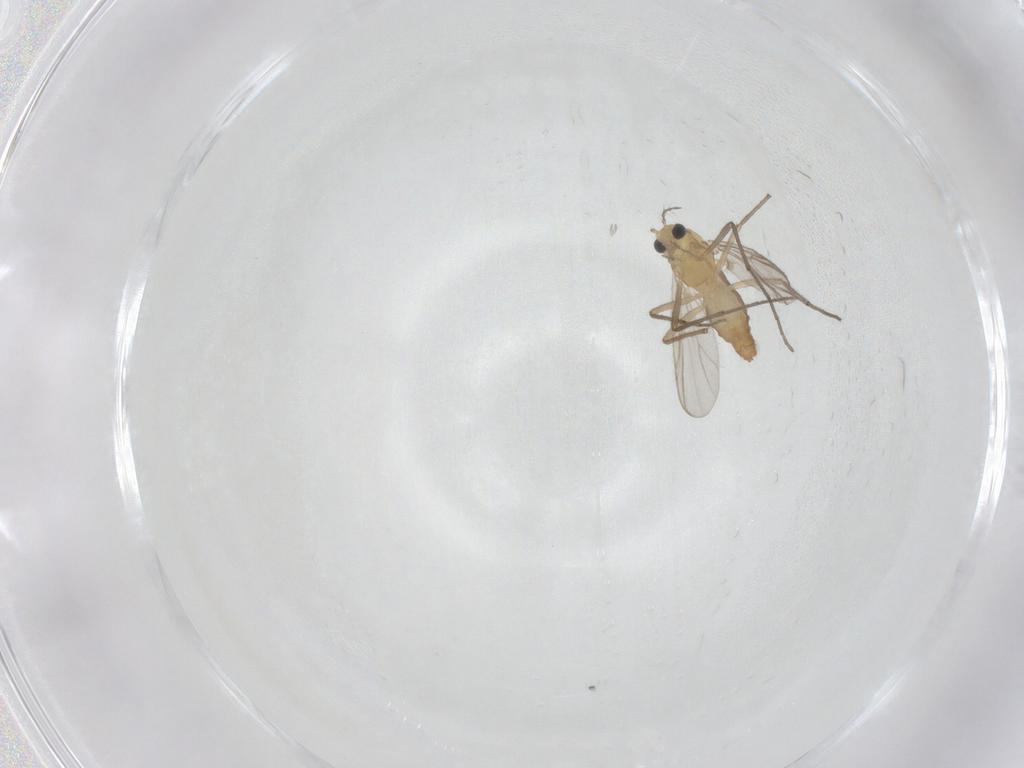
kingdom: Animalia
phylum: Arthropoda
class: Insecta
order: Diptera
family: Chironomidae
